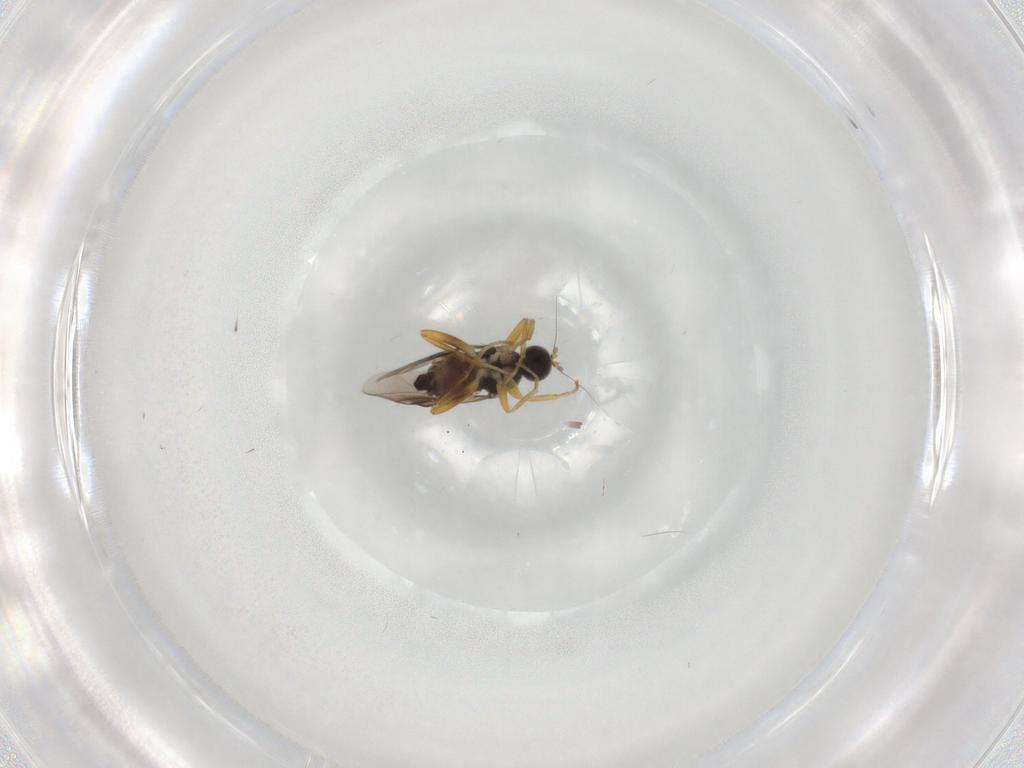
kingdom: Animalia
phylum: Arthropoda
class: Insecta
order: Diptera
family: Hybotidae
